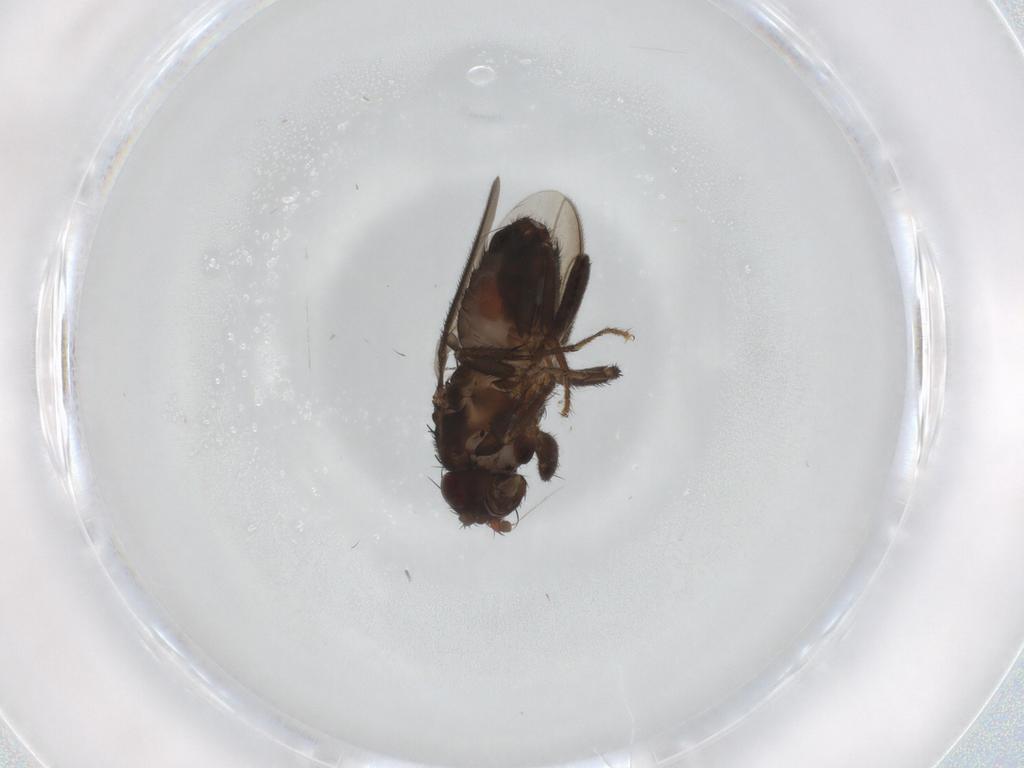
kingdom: Animalia
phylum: Arthropoda
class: Insecta
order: Diptera
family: Sphaeroceridae
